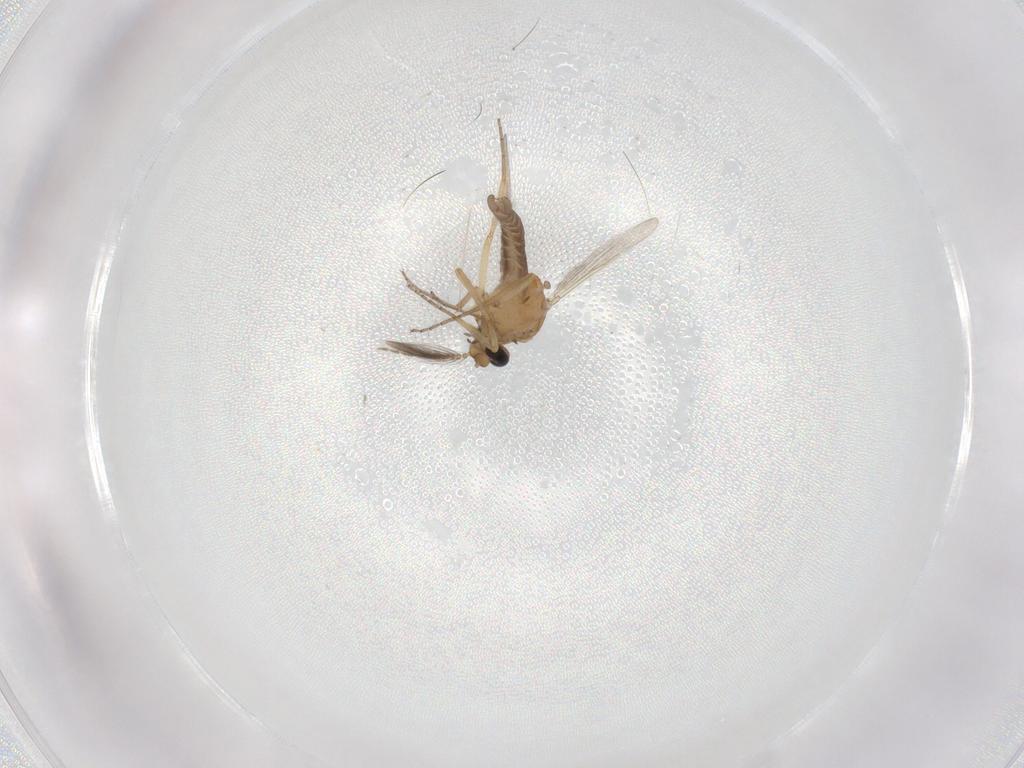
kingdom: Animalia
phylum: Arthropoda
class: Insecta
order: Diptera
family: Ceratopogonidae
